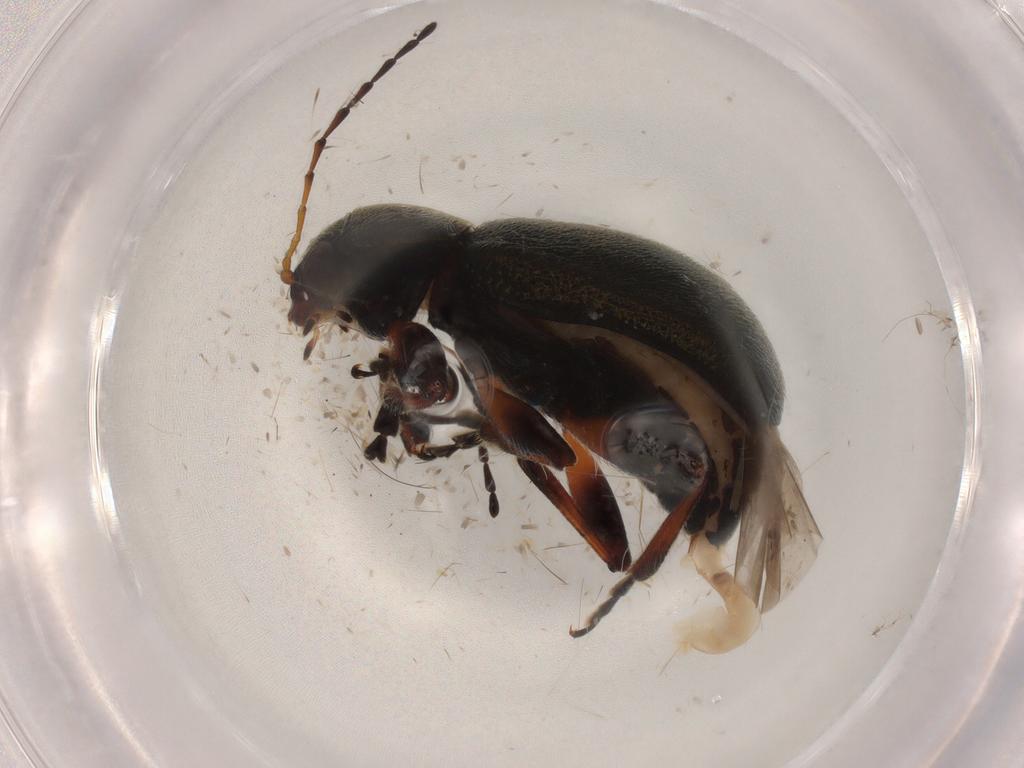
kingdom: Animalia
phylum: Arthropoda
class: Insecta
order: Coleoptera
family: Chrysomelidae
